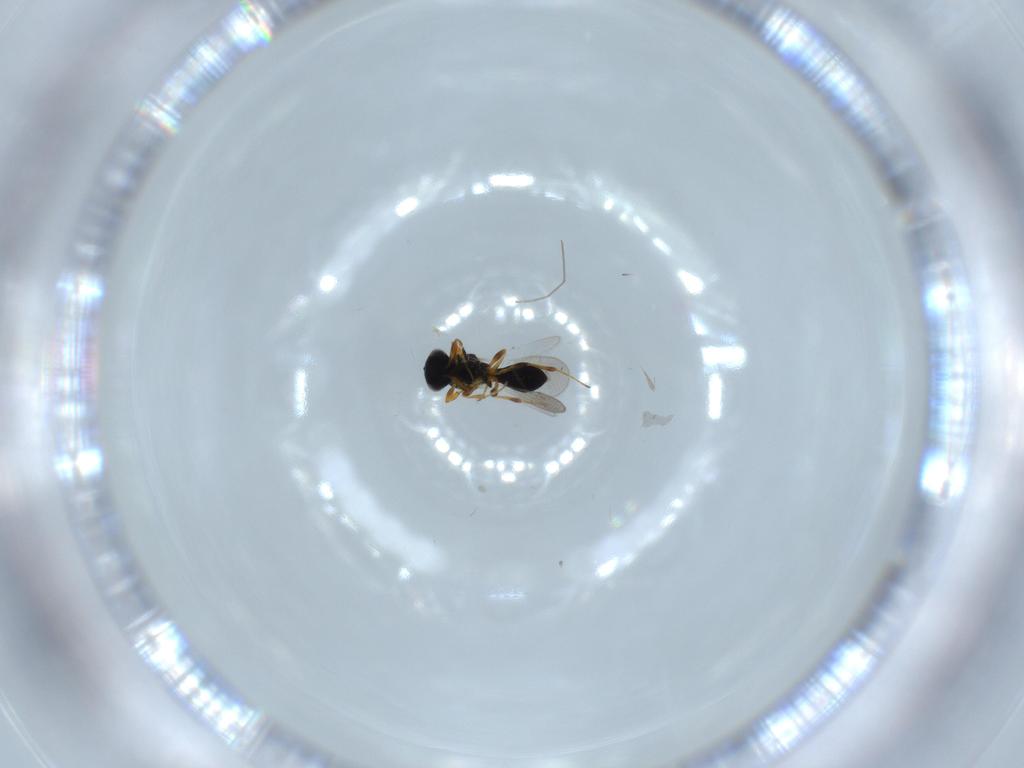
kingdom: Animalia
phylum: Arthropoda
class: Insecta
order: Hymenoptera
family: Platygastridae
